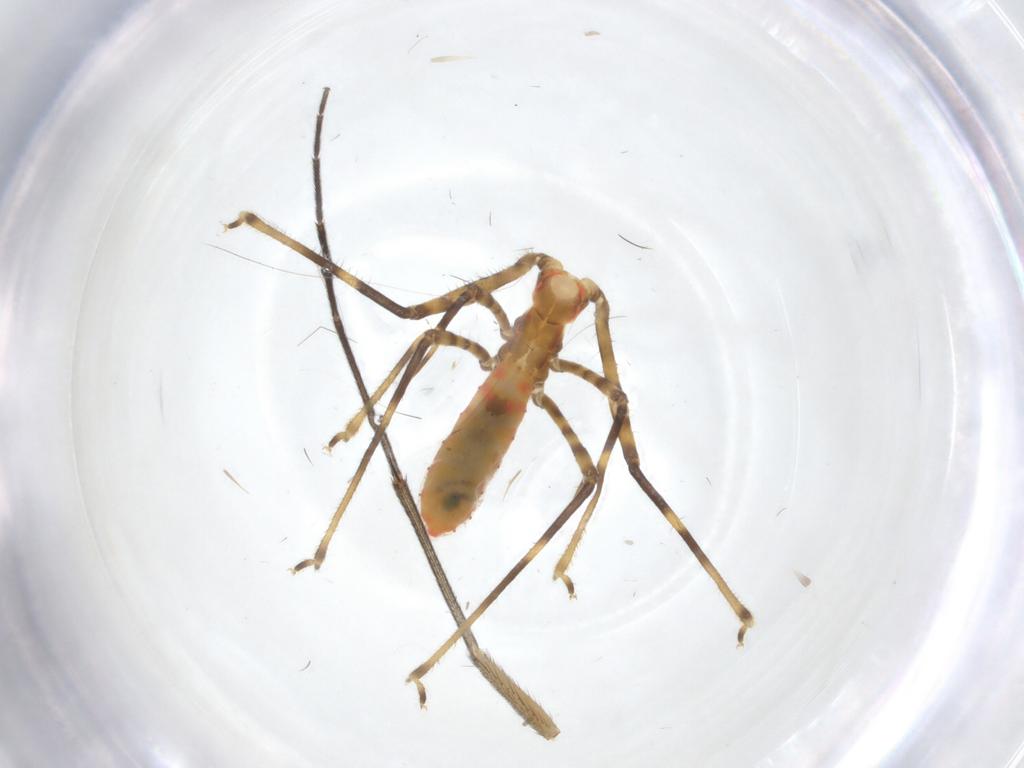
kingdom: Animalia
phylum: Arthropoda
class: Insecta
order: Hemiptera
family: Reduviidae
